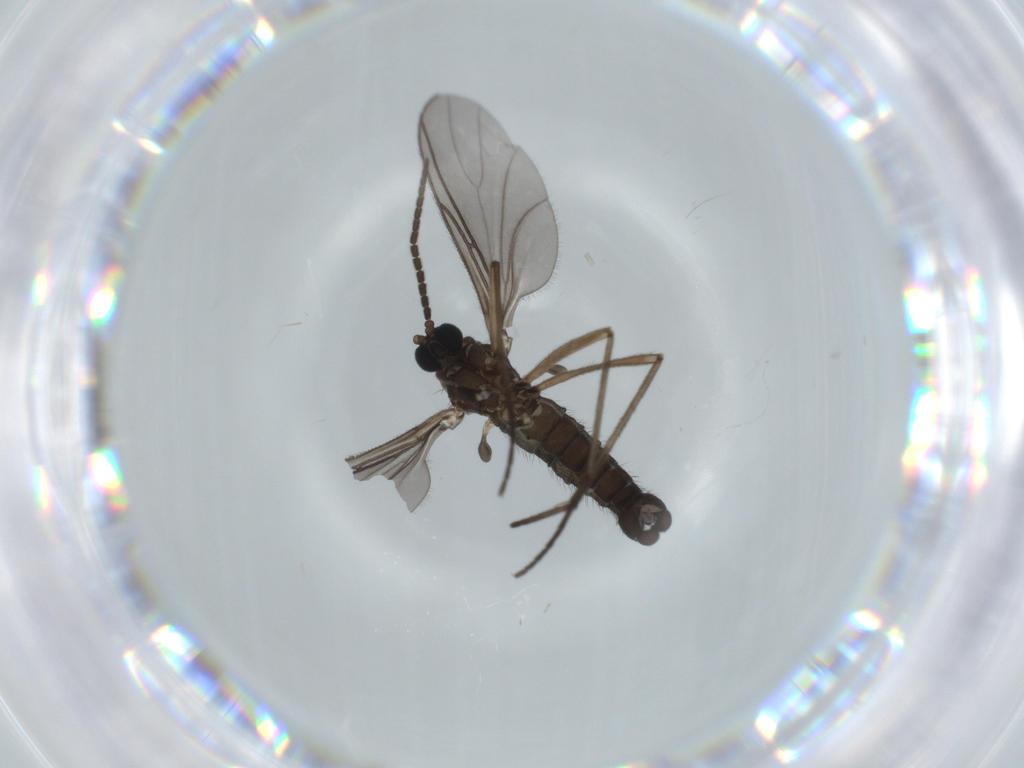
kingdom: Animalia
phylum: Arthropoda
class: Insecta
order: Diptera
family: Sciaridae
